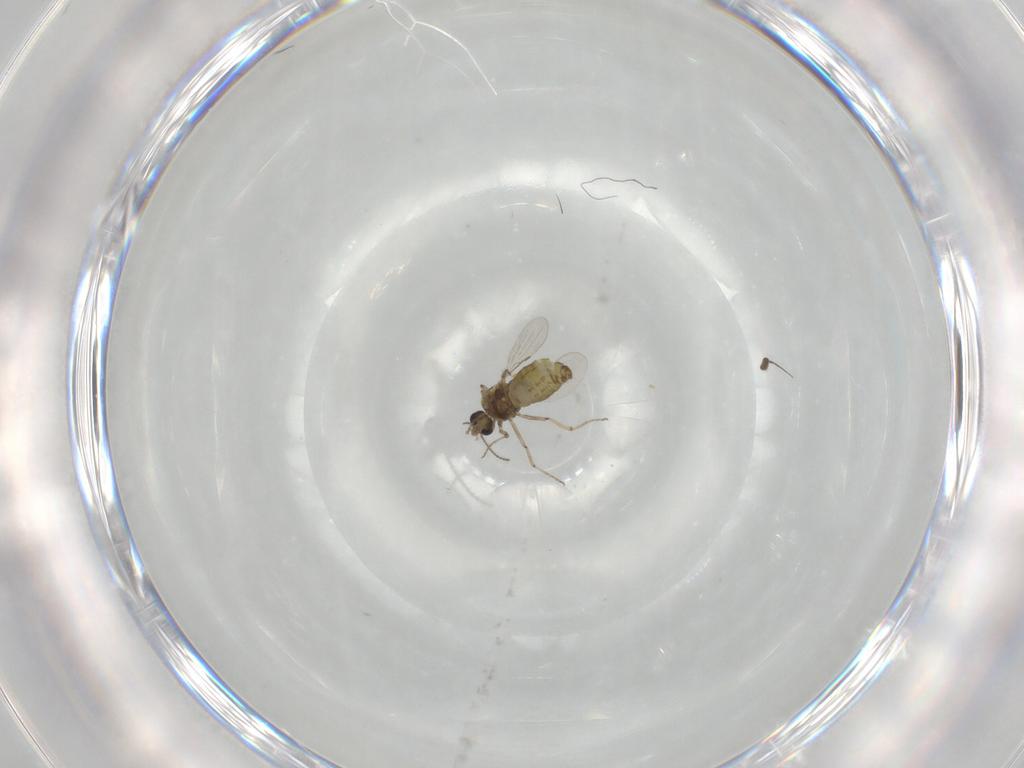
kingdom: Animalia
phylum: Arthropoda
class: Insecta
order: Diptera
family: Ceratopogonidae
